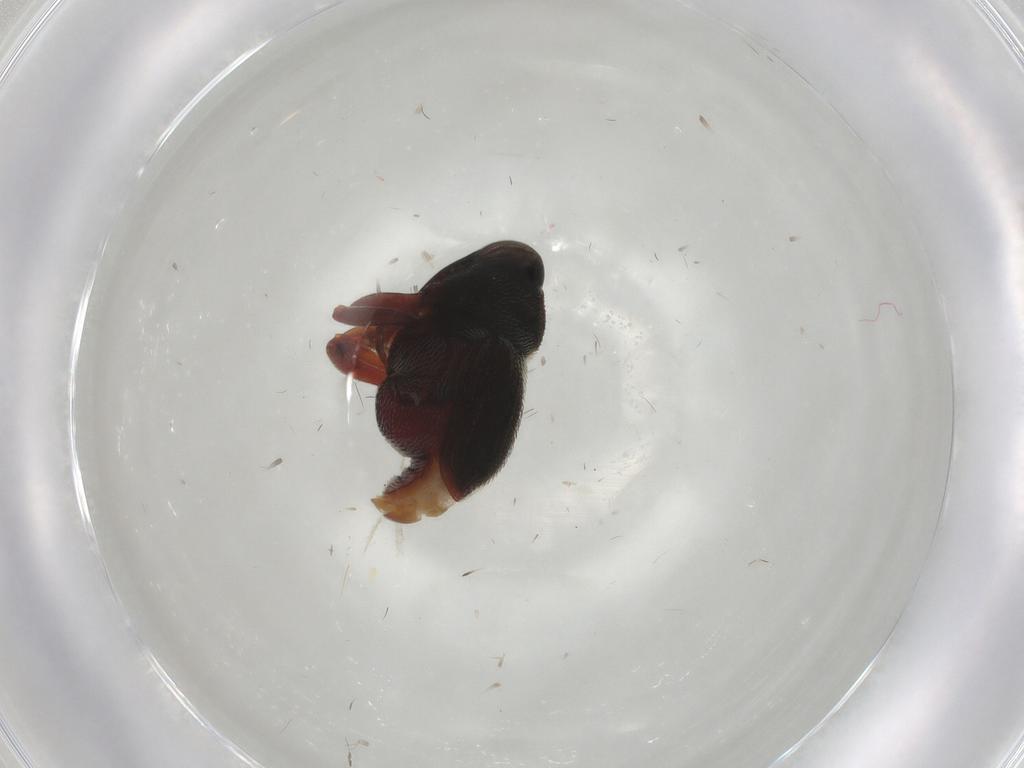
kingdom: Animalia
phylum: Arthropoda
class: Insecta
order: Coleoptera
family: Curculionidae
